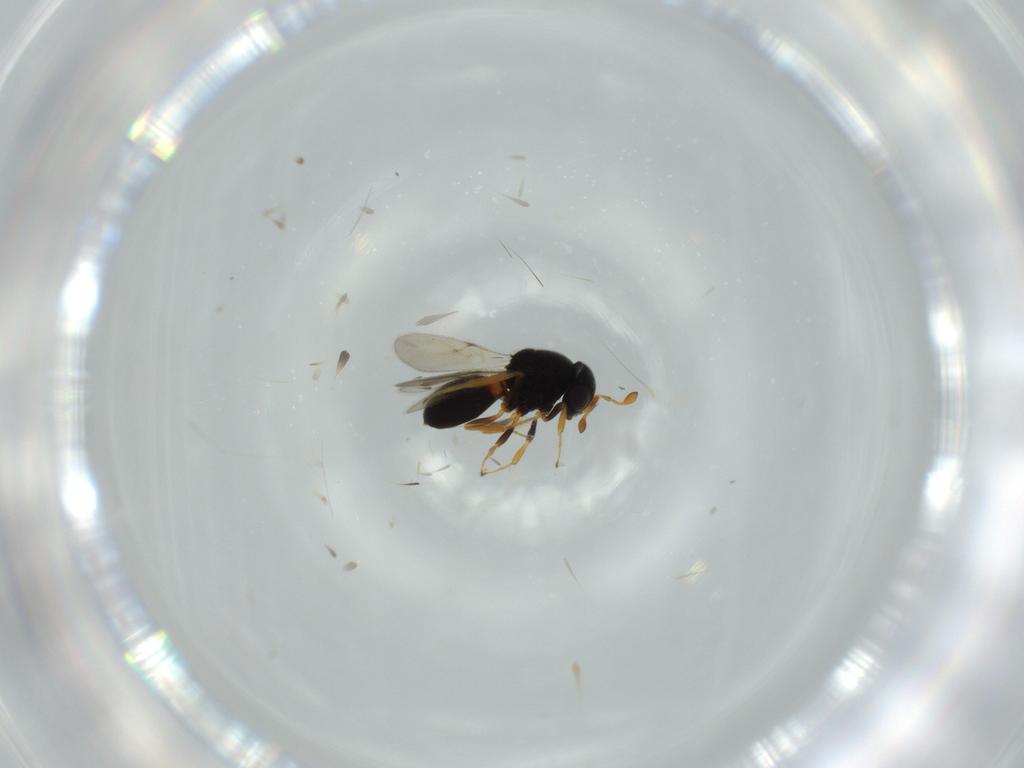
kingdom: Animalia
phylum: Arthropoda
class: Insecta
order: Hymenoptera
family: Scelionidae
